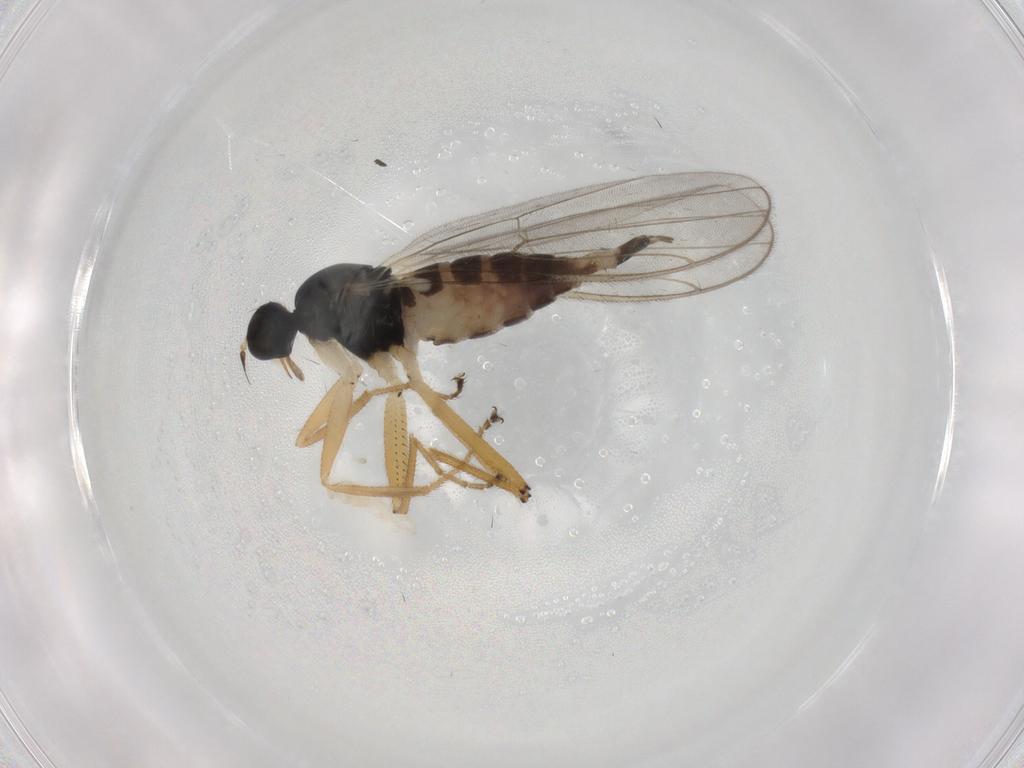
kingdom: Animalia
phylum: Arthropoda
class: Insecta
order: Diptera
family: Hybotidae
